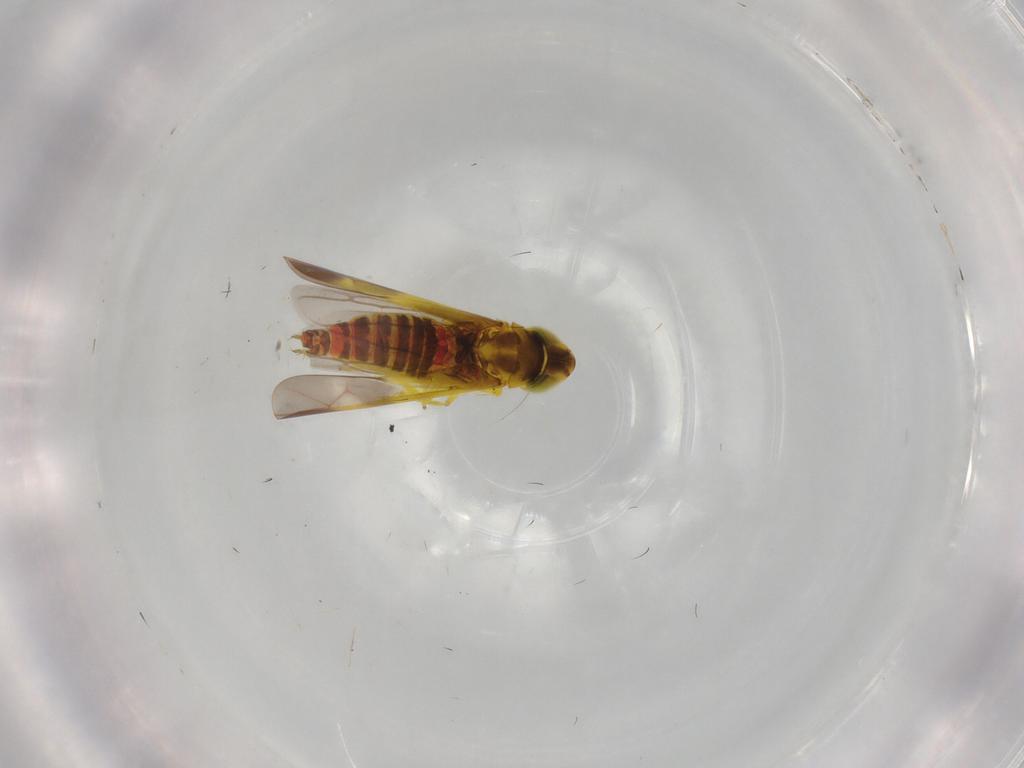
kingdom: Animalia
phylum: Arthropoda
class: Insecta
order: Hemiptera
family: Cicadellidae
